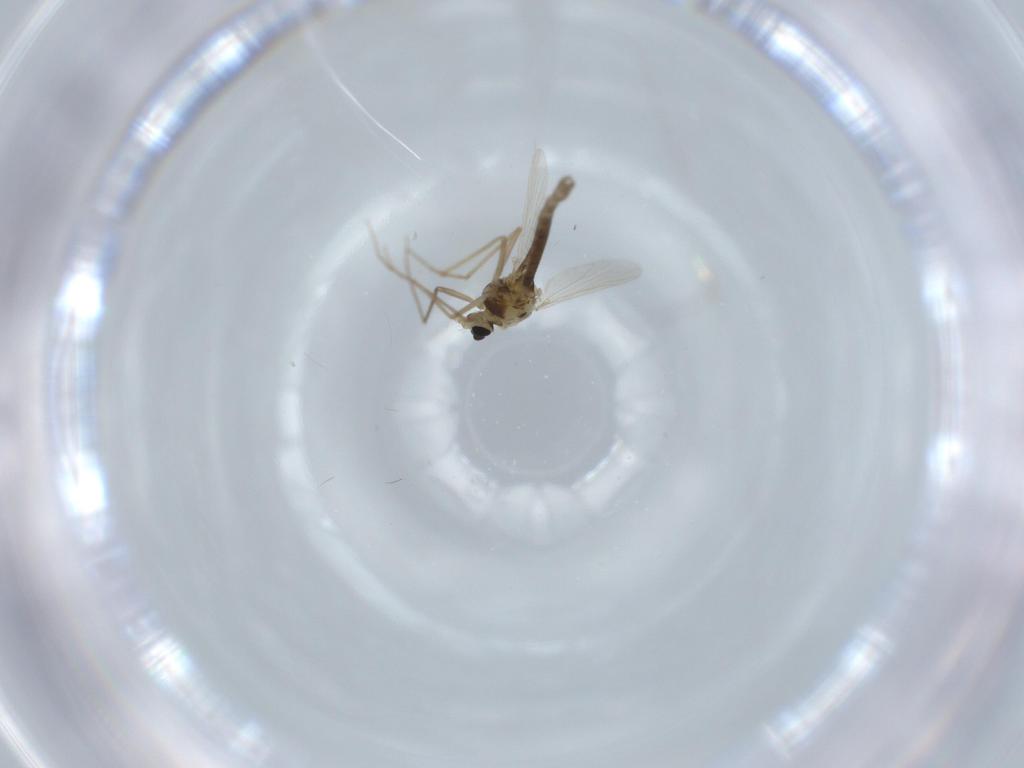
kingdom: Animalia
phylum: Arthropoda
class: Insecta
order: Diptera
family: Chironomidae
